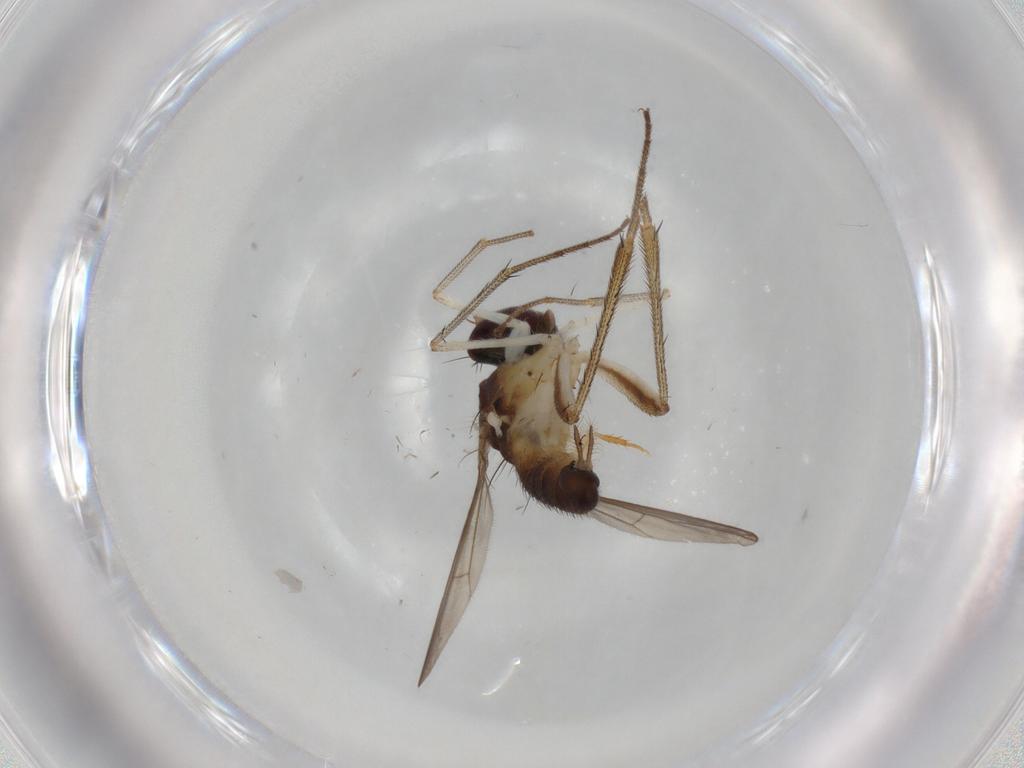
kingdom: Animalia
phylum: Arthropoda
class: Insecta
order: Diptera
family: Dolichopodidae
